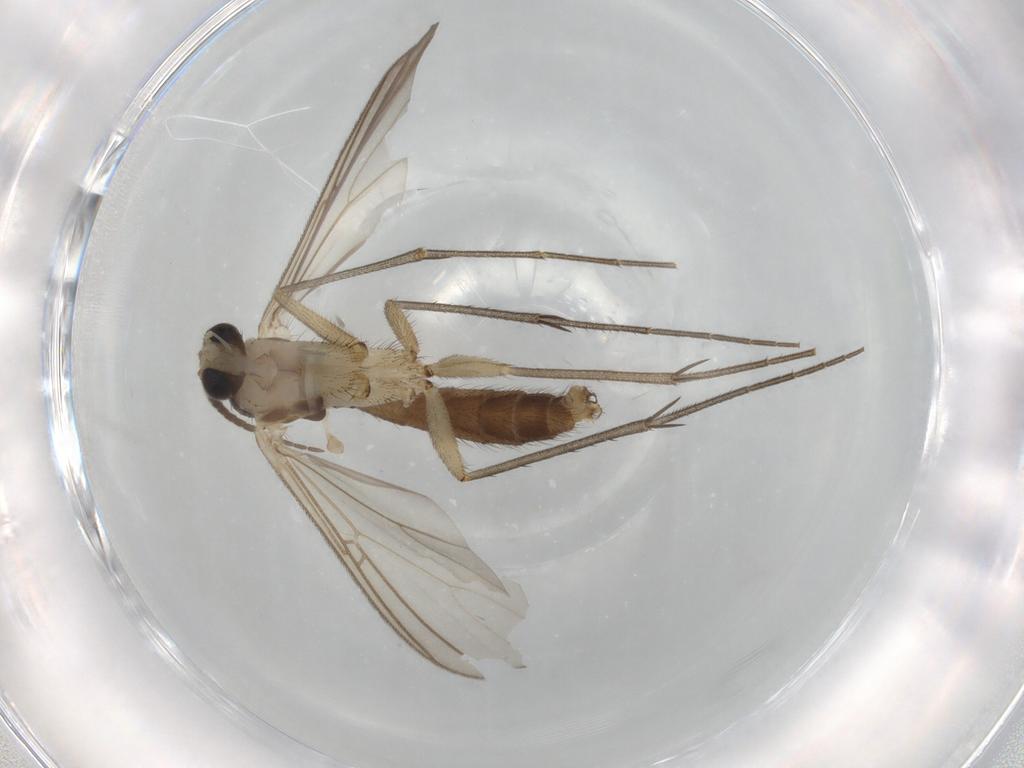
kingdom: Animalia
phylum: Arthropoda
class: Insecta
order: Diptera
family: Mycetophilidae
